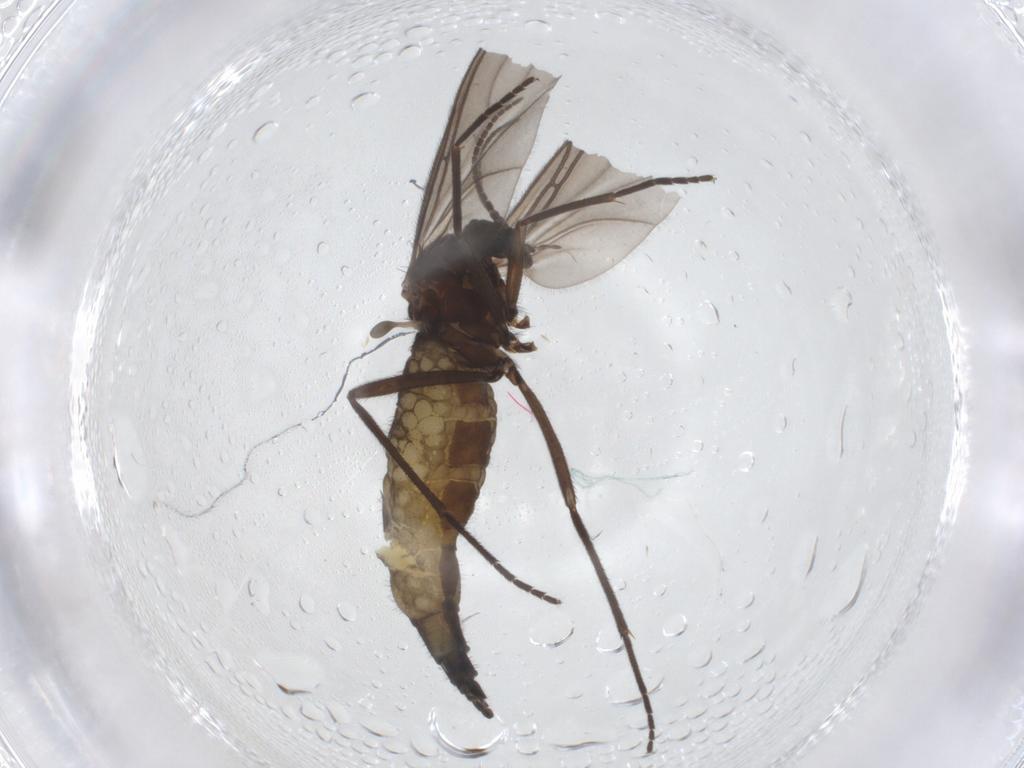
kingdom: Animalia
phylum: Arthropoda
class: Insecta
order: Diptera
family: Sciaridae
